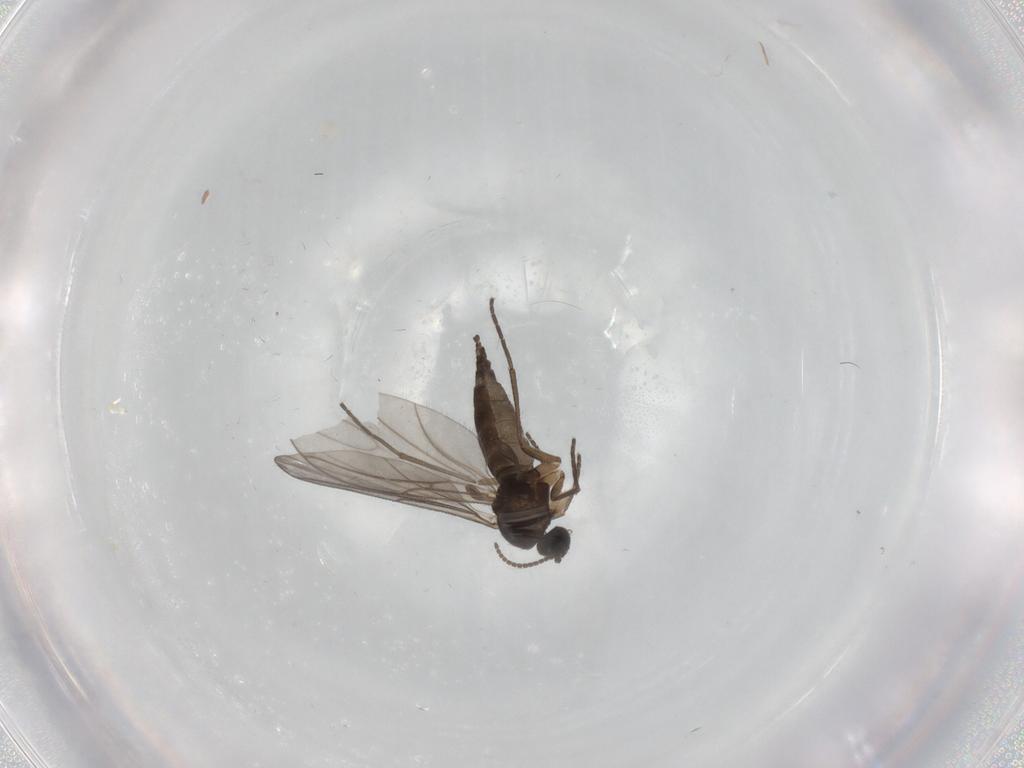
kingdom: Animalia
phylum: Arthropoda
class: Insecta
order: Diptera
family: Sciaridae
